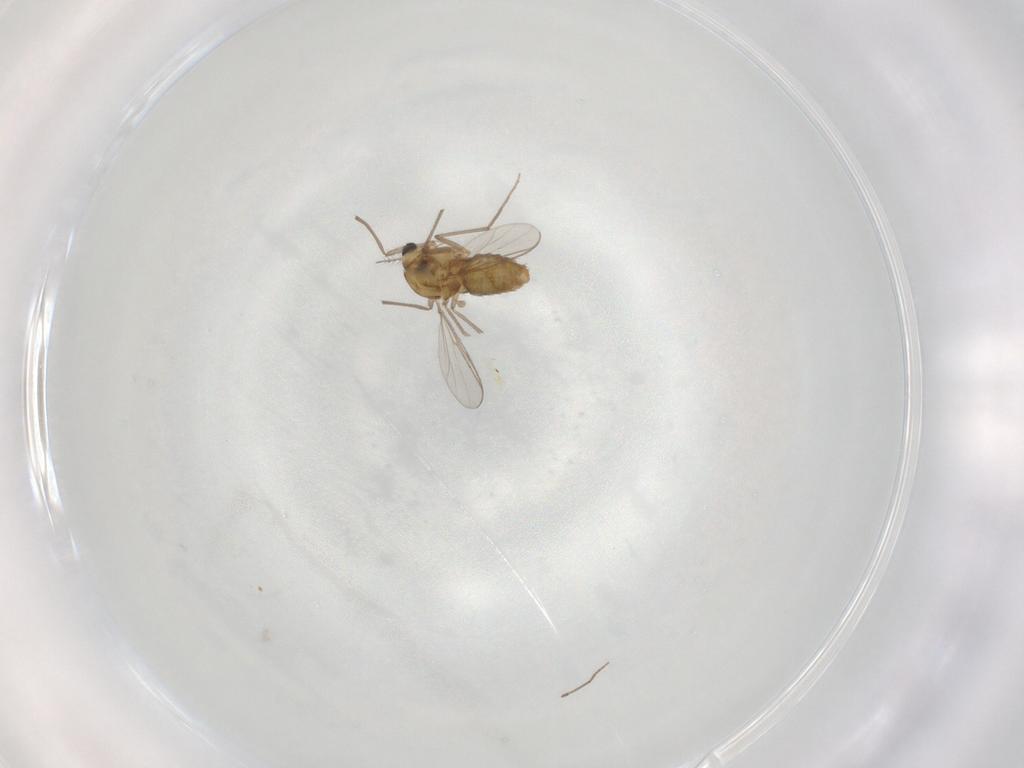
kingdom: Animalia
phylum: Arthropoda
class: Insecta
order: Diptera
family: Chironomidae
